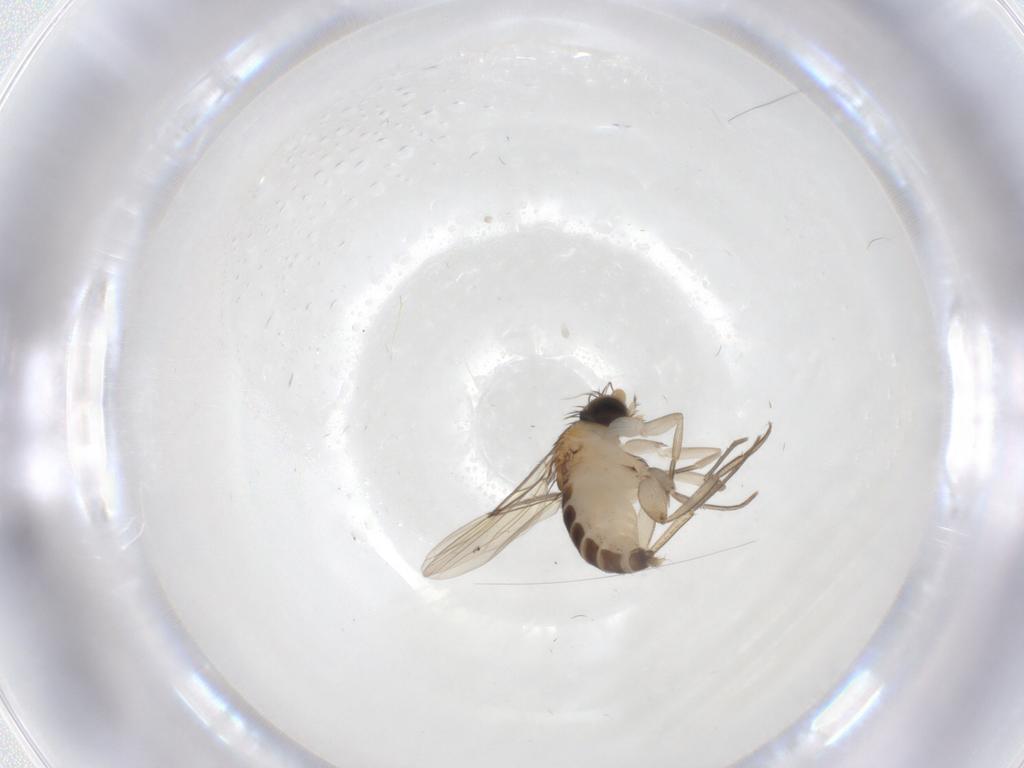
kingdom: Animalia
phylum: Arthropoda
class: Insecta
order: Diptera
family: Phoridae
